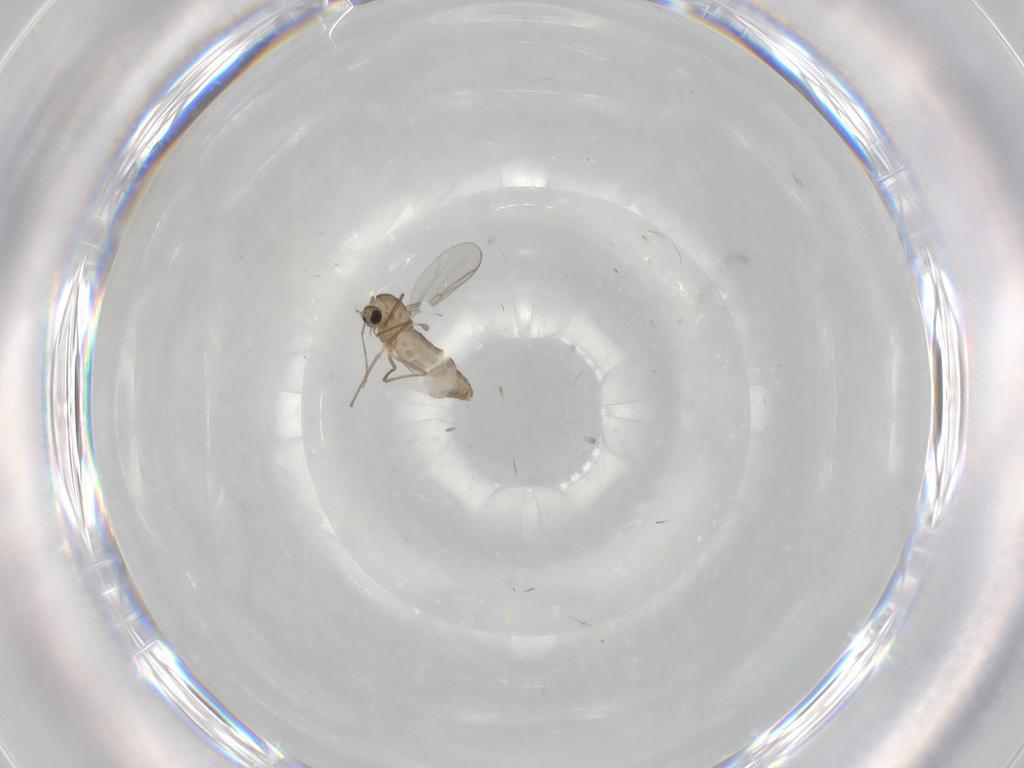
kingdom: Animalia
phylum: Arthropoda
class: Insecta
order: Diptera
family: Chironomidae
